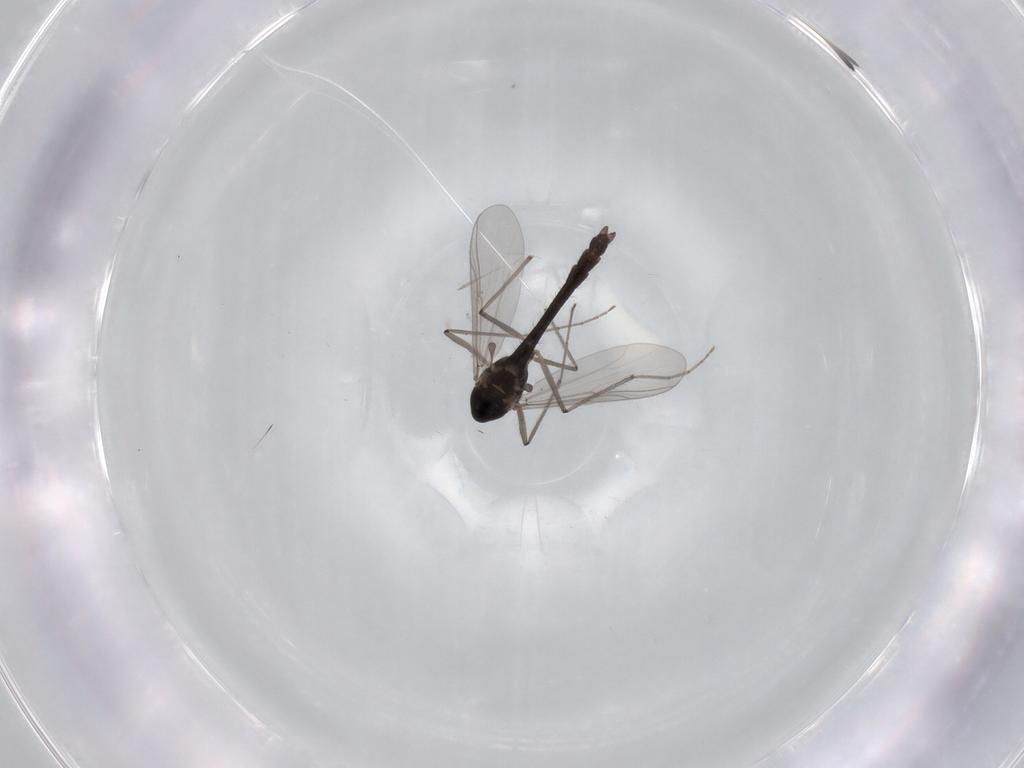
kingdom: Animalia
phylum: Arthropoda
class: Insecta
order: Diptera
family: Chironomidae
